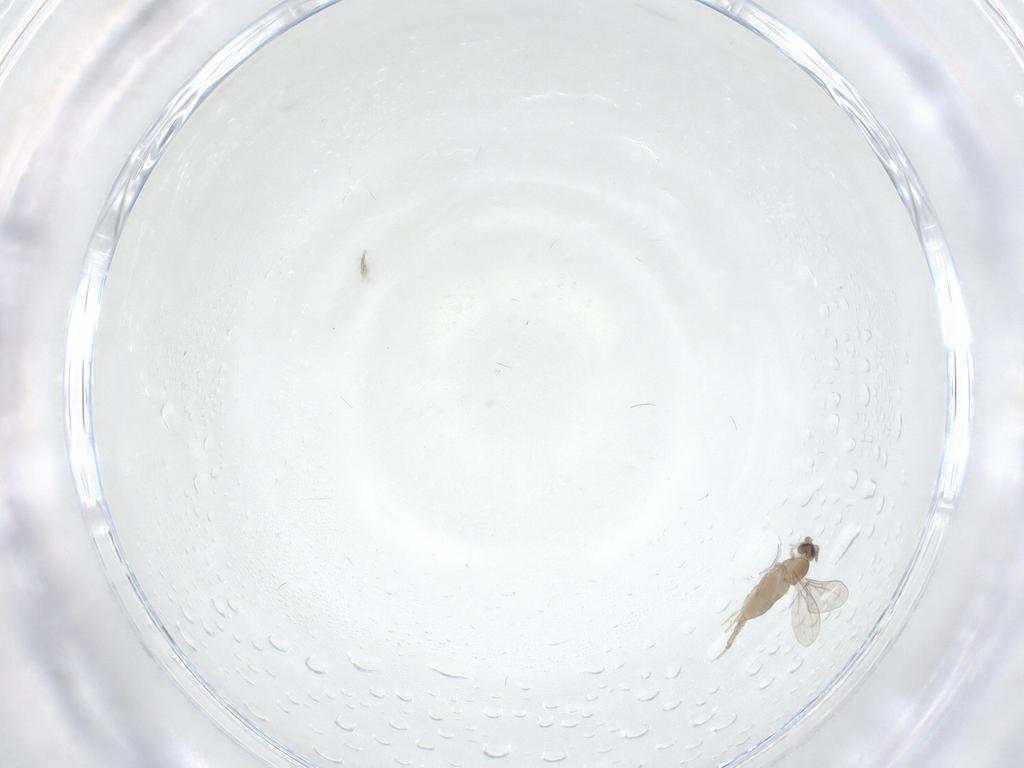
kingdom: Animalia
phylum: Arthropoda
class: Insecta
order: Diptera
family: Cecidomyiidae
